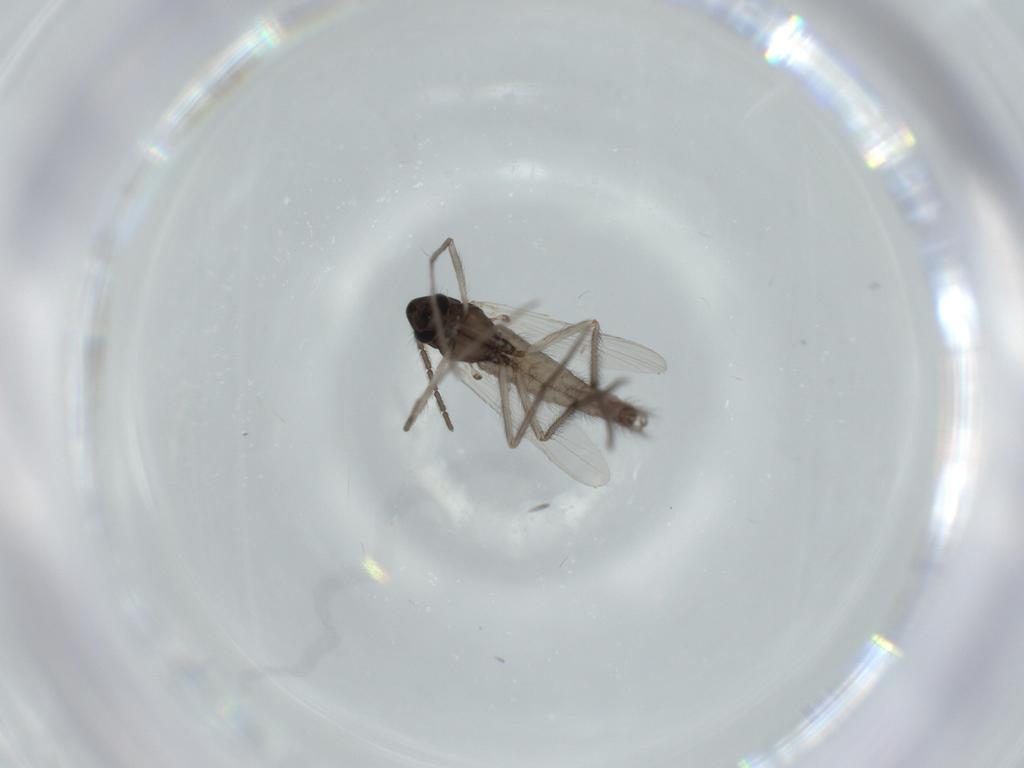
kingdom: Animalia
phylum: Arthropoda
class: Insecta
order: Diptera
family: Chironomidae
